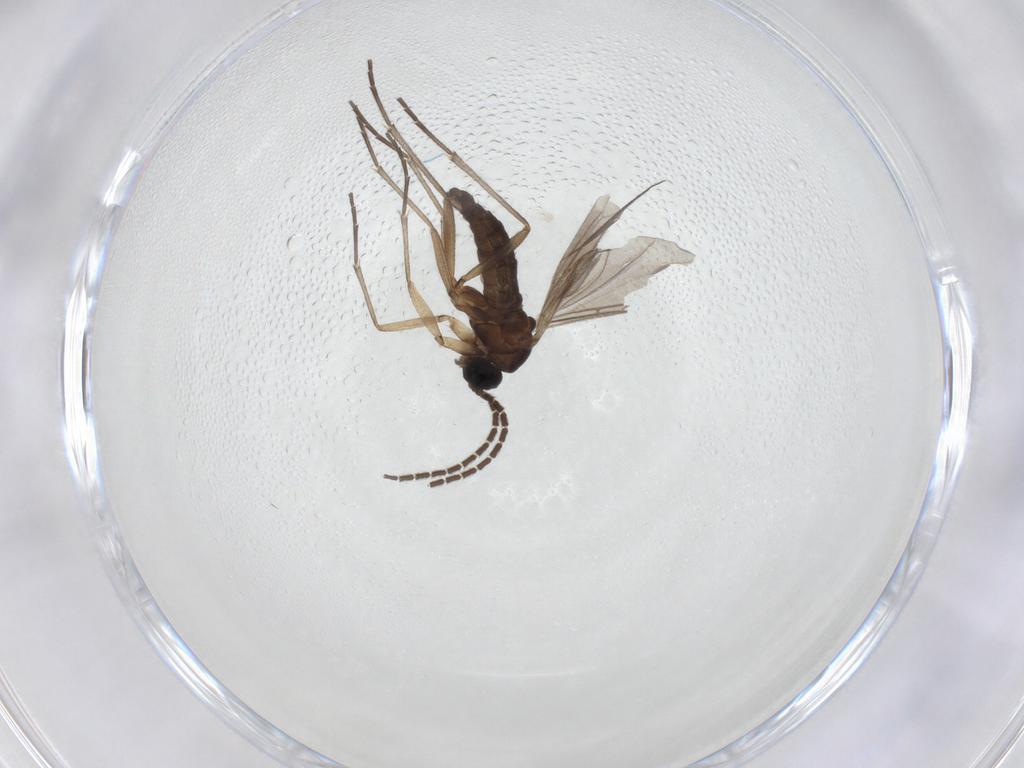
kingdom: Animalia
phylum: Arthropoda
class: Insecta
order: Diptera
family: Sciaridae
